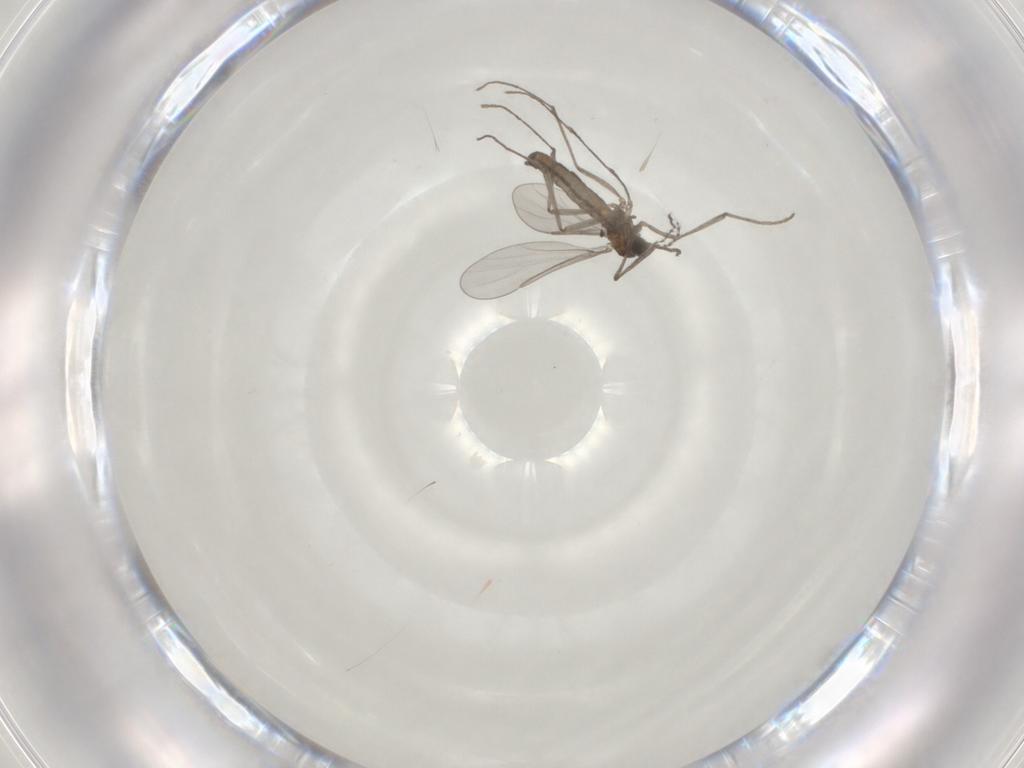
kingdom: Animalia
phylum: Arthropoda
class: Insecta
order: Diptera
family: Cecidomyiidae
